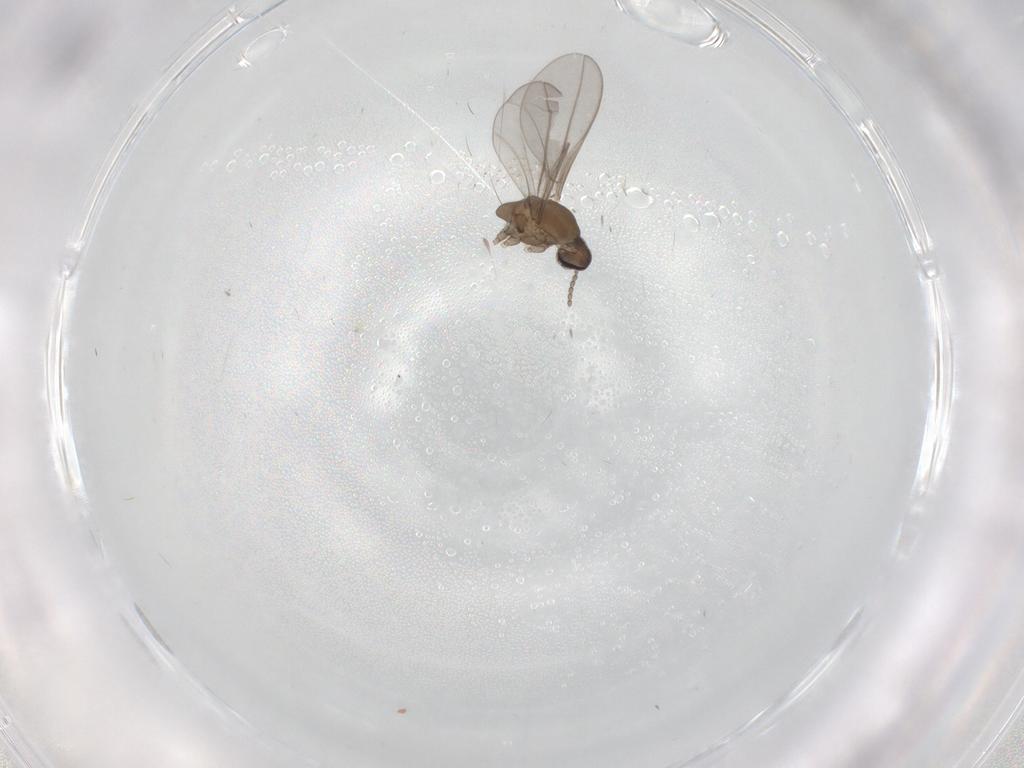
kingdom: Animalia
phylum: Arthropoda
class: Insecta
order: Diptera
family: Cecidomyiidae
